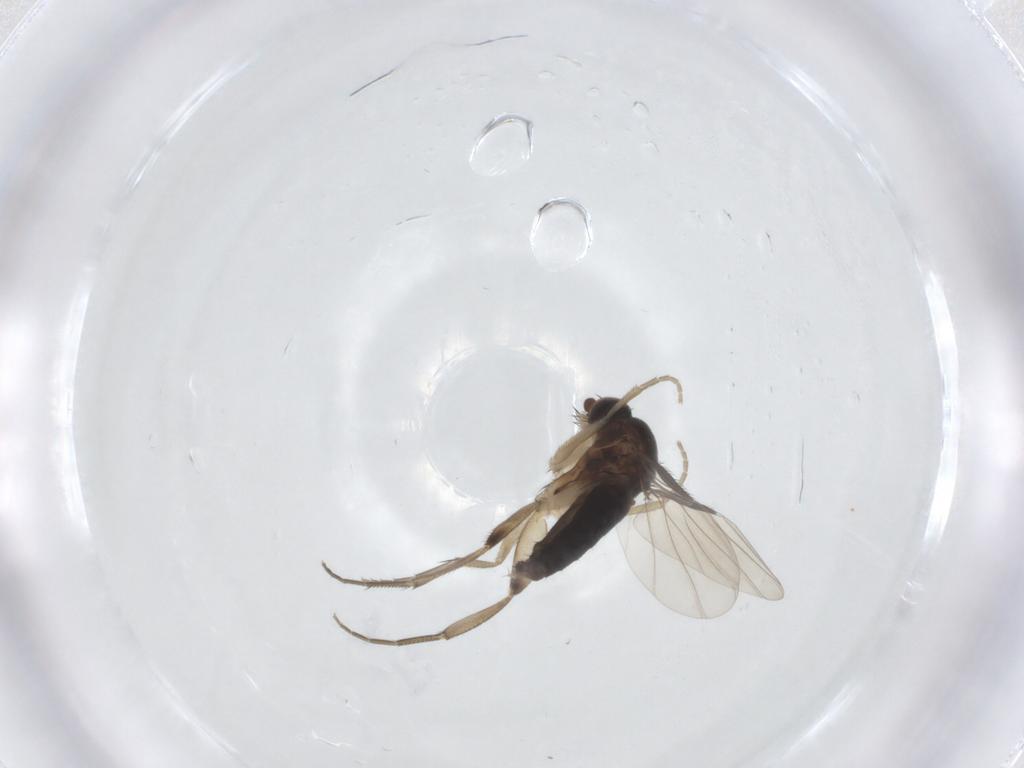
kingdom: Animalia
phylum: Arthropoda
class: Insecta
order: Diptera
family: Phoridae
